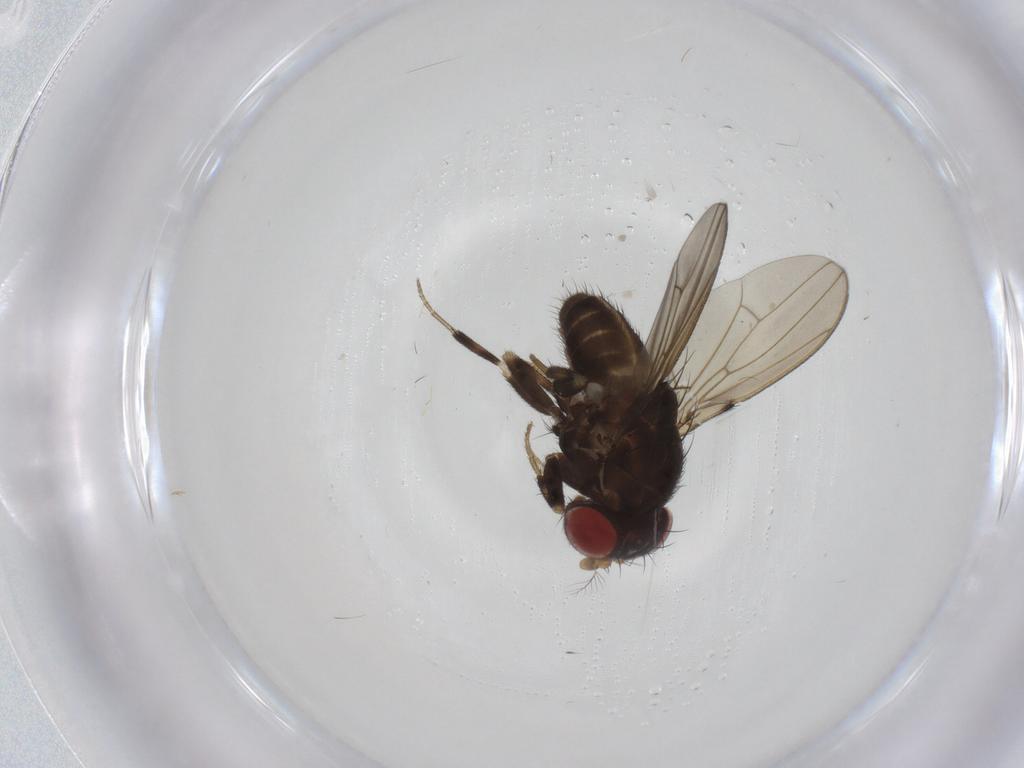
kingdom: Animalia
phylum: Arthropoda
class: Insecta
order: Diptera
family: Drosophilidae
